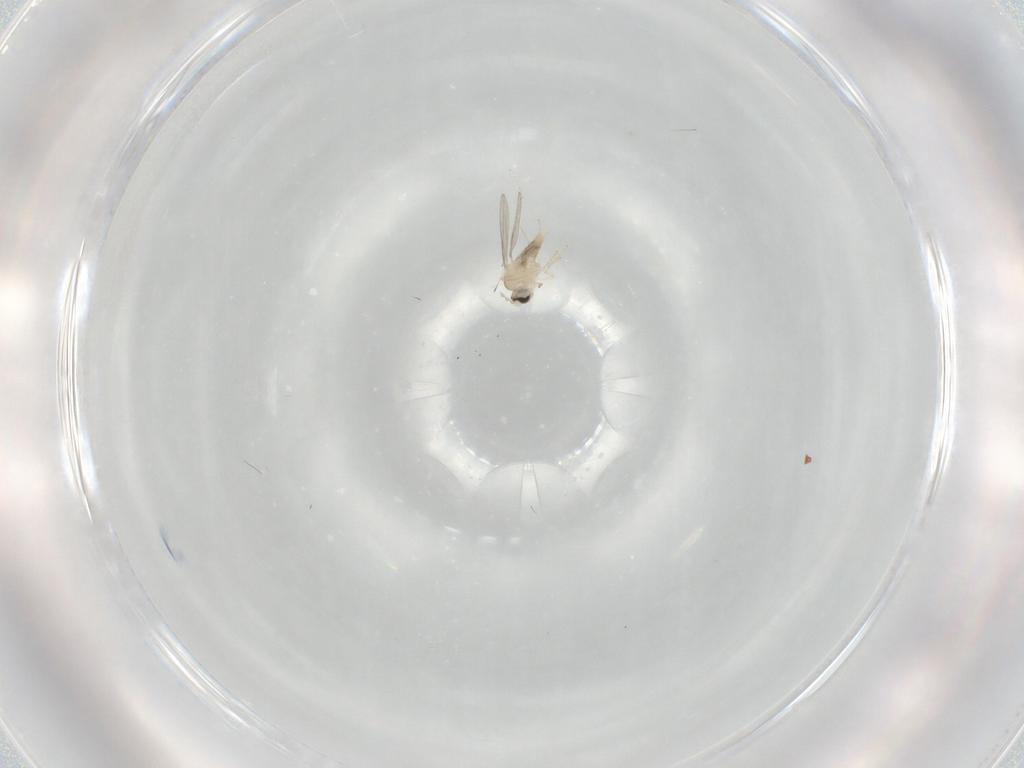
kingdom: Animalia
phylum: Arthropoda
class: Insecta
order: Diptera
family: Cecidomyiidae
